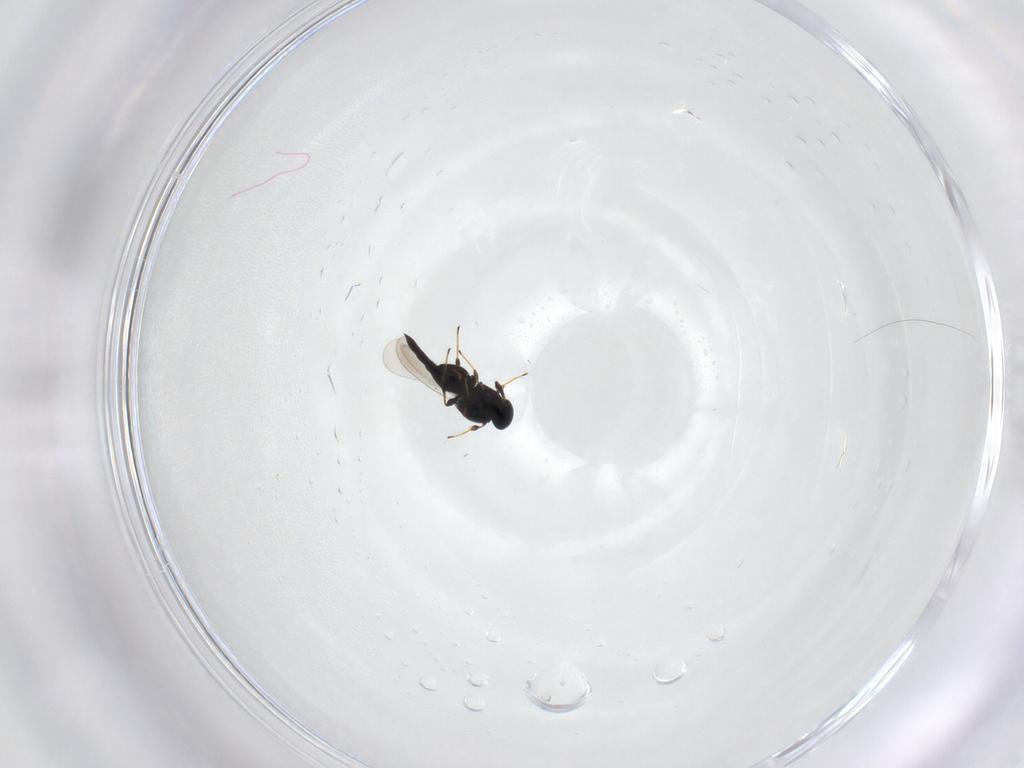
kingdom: Animalia
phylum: Arthropoda
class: Insecta
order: Hymenoptera
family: Platygastridae
